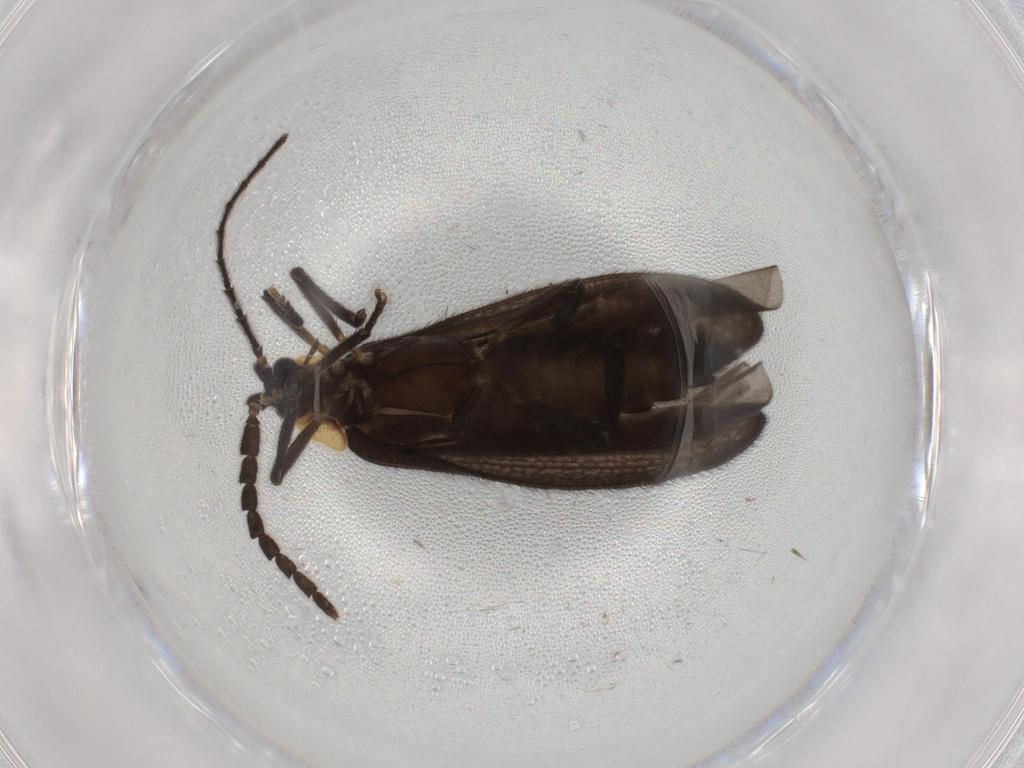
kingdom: Animalia
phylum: Arthropoda
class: Insecta
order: Coleoptera
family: Lycidae
